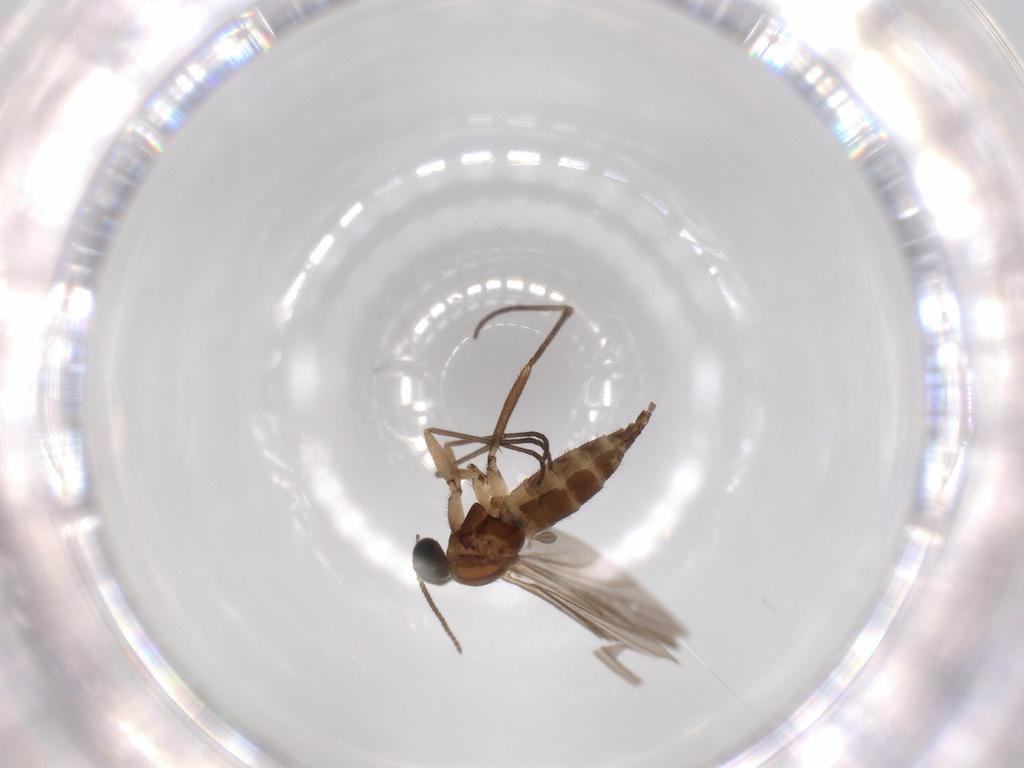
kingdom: Animalia
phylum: Arthropoda
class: Insecta
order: Diptera
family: Sciaridae
